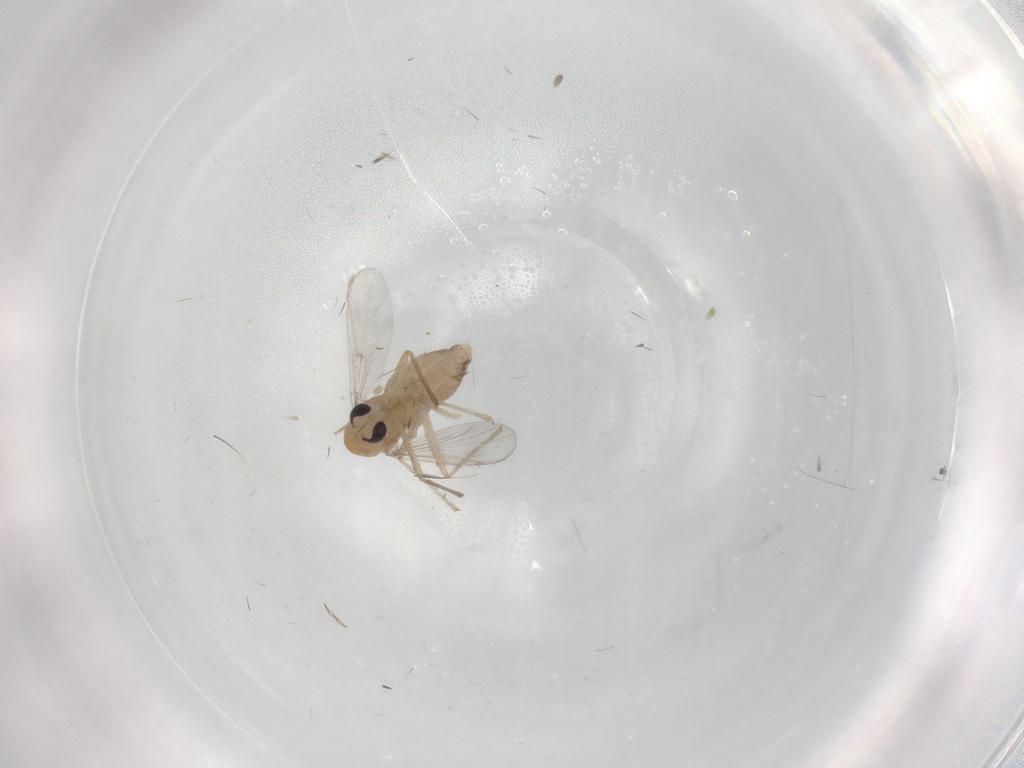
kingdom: Animalia
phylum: Arthropoda
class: Insecta
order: Diptera
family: Chironomidae
